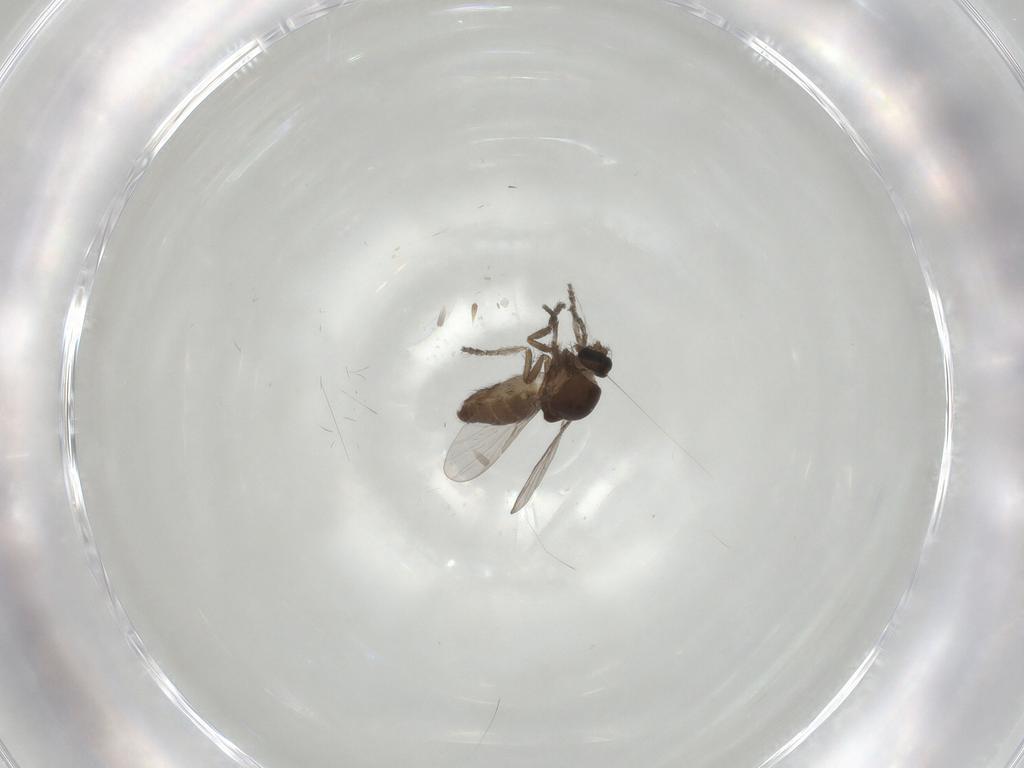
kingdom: Animalia
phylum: Arthropoda
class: Insecta
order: Diptera
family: Ceratopogonidae
